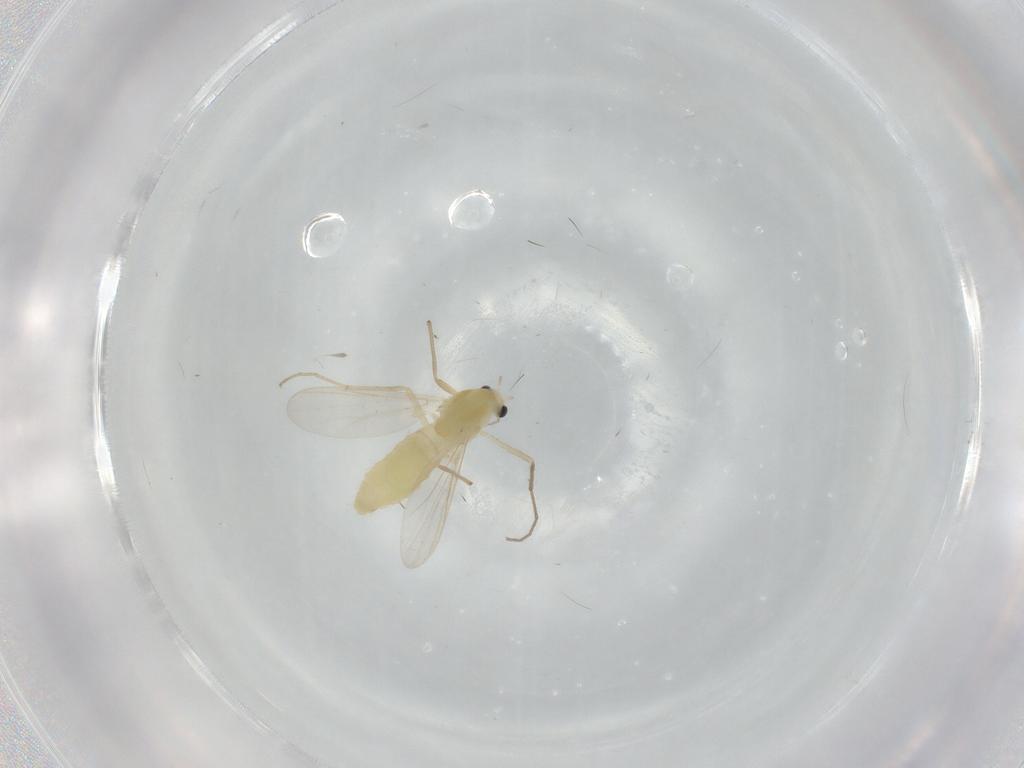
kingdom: Animalia
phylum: Arthropoda
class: Insecta
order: Diptera
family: Chironomidae
